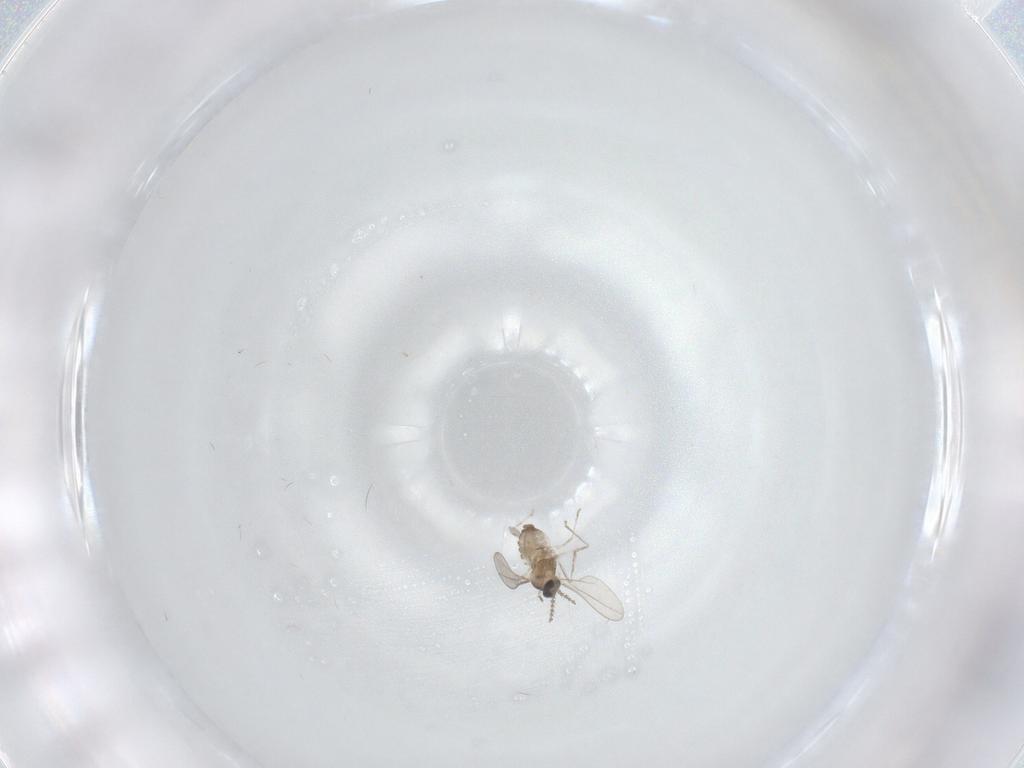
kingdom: Animalia
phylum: Arthropoda
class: Insecta
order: Diptera
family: Cecidomyiidae
